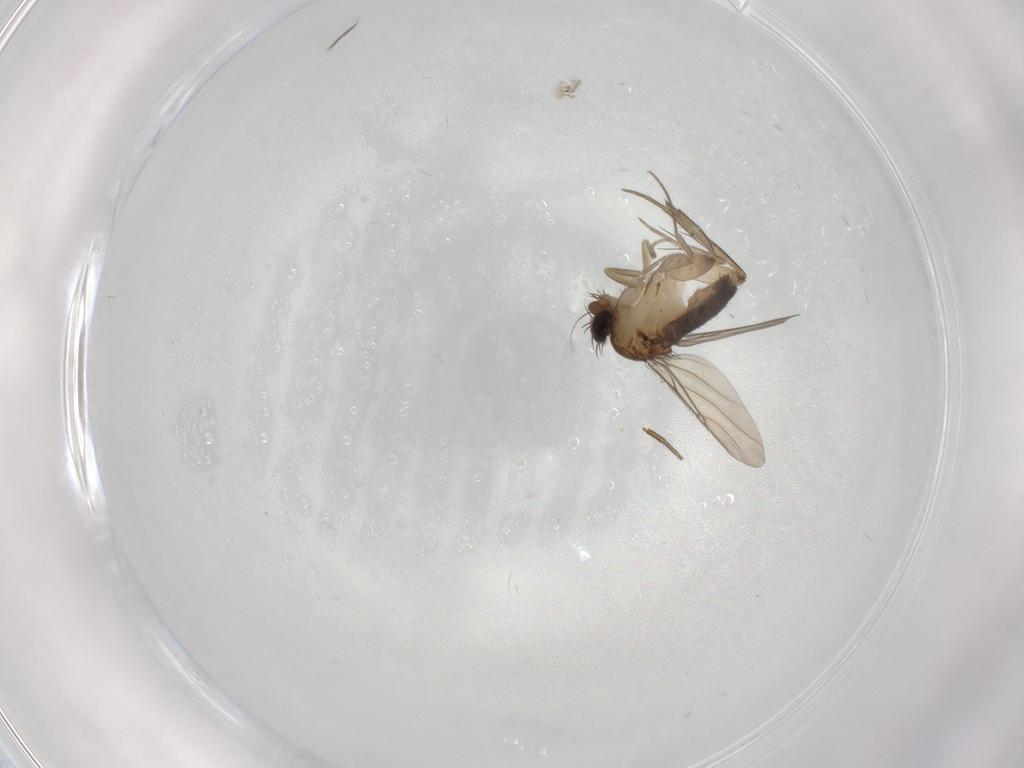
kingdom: Animalia
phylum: Arthropoda
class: Insecta
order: Diptera
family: Phoridae
